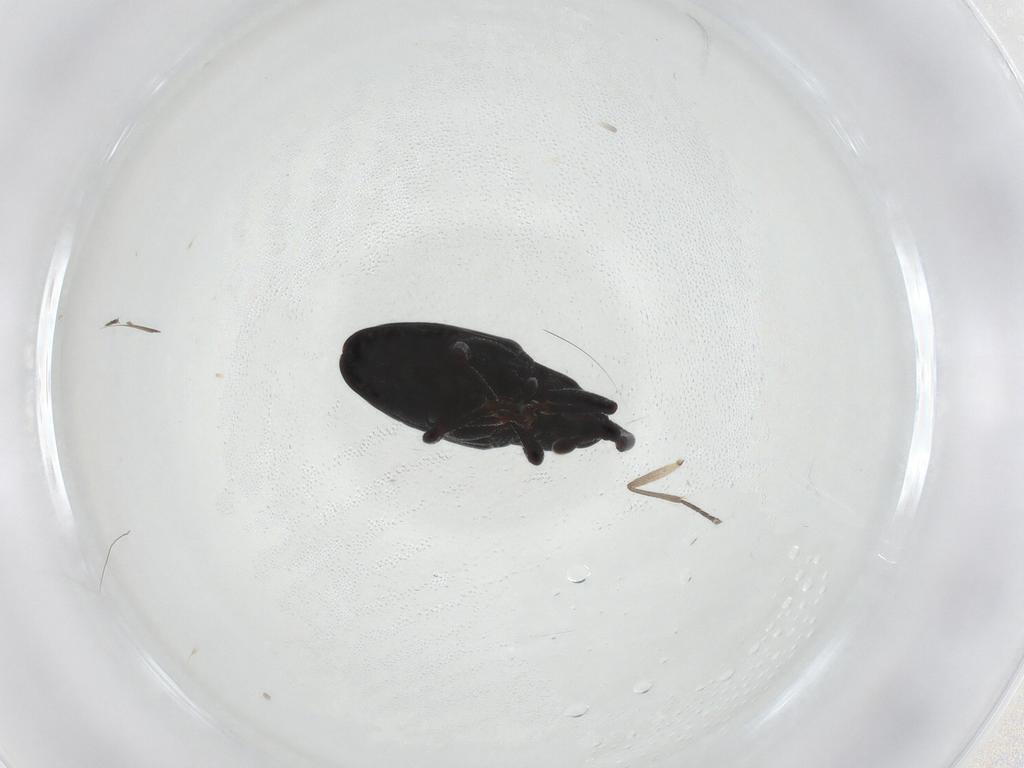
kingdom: Animalia
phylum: Arthropoda
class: Insecta
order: Coleoptera
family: Curculionidae
